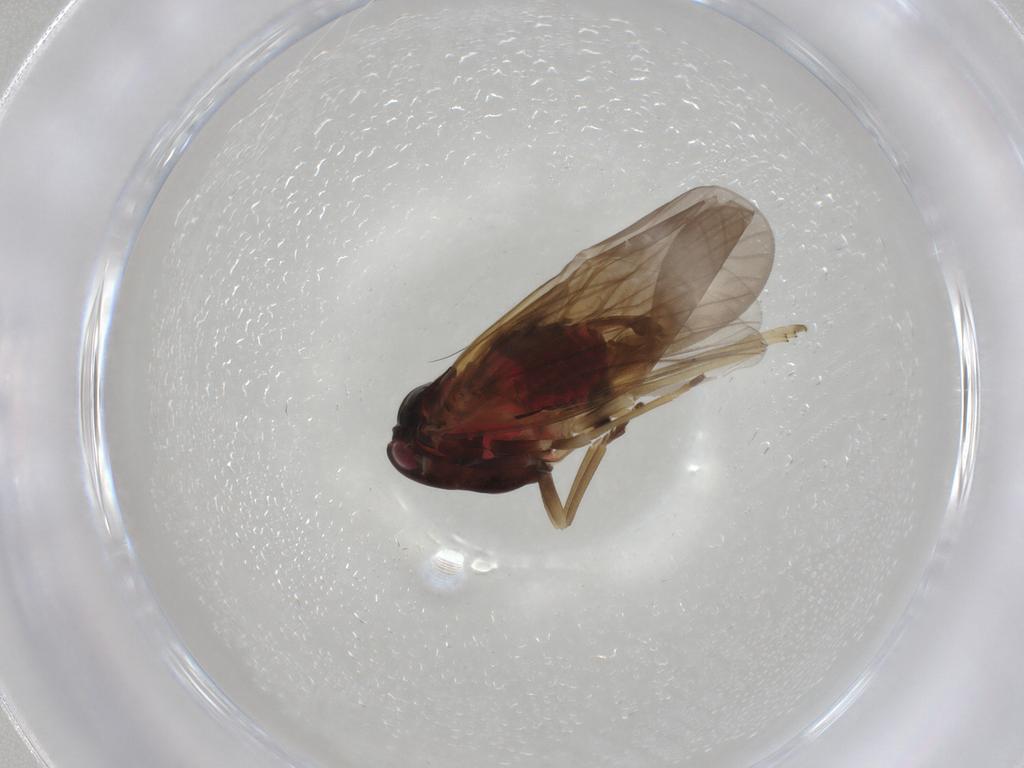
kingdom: Animalia
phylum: Arthropoda
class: Insecta
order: Hemiptera
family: Derbidae
